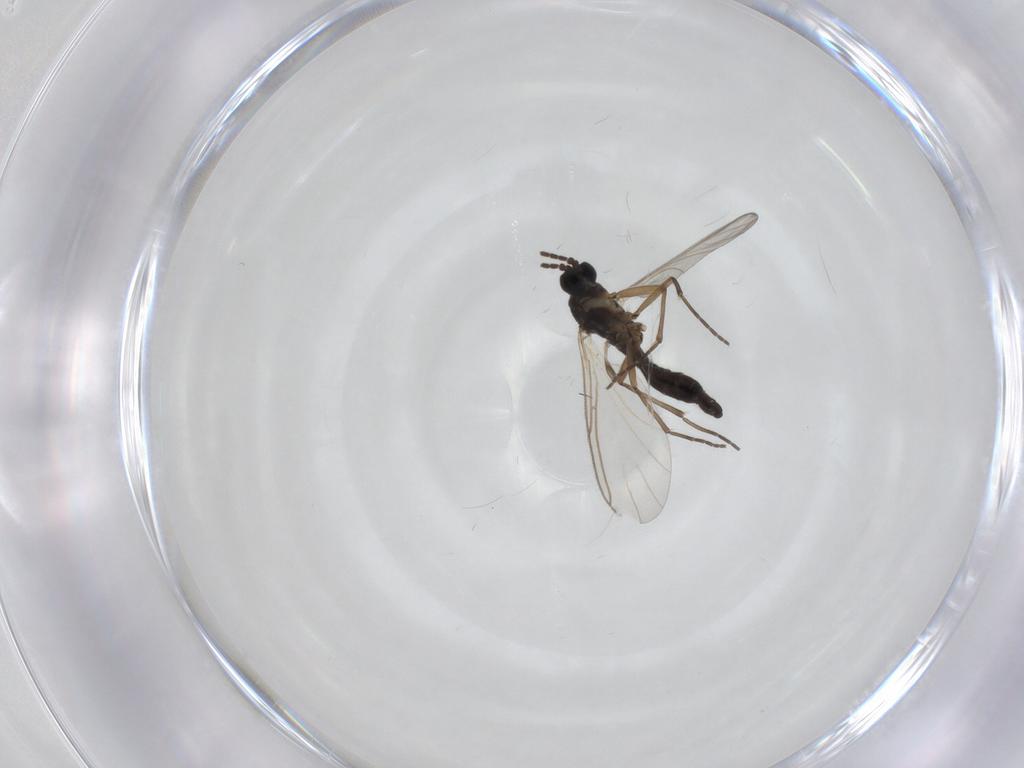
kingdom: Animalia
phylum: Arthropoda
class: Insecta
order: Diptera
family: Sciaridae
